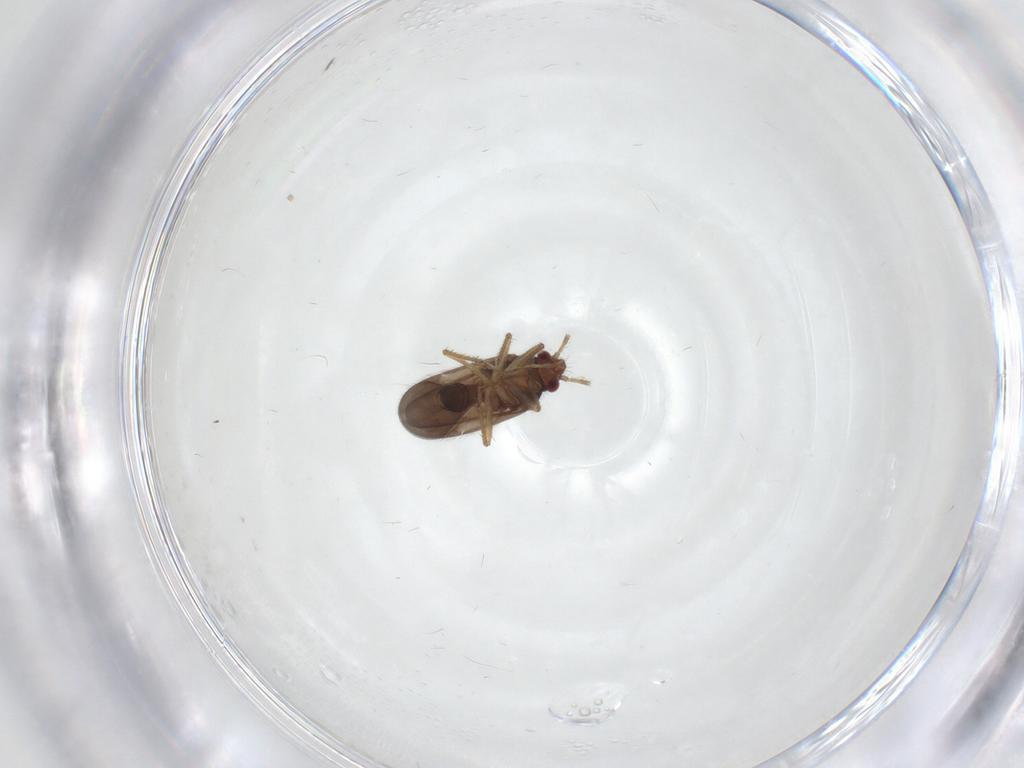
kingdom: Animalia
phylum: Arthropoda
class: Insecta
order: Hemiptera
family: Ceratocombidae
